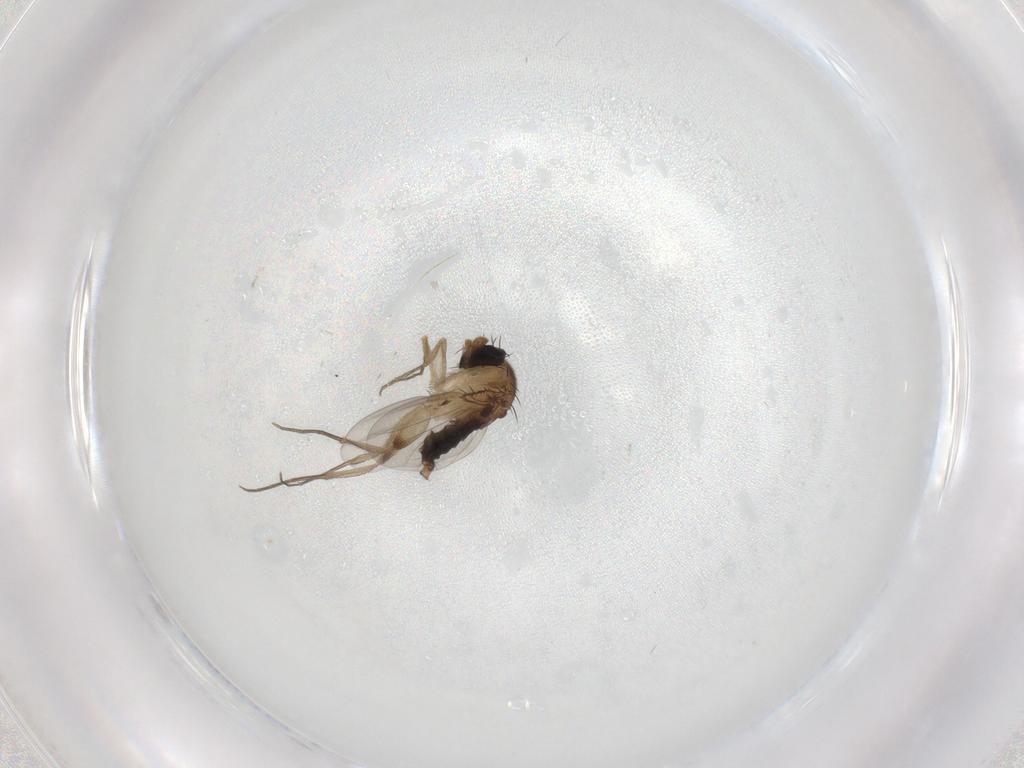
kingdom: Animalia
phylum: Arthropoda
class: Insecta
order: Diptera
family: Phoridae
